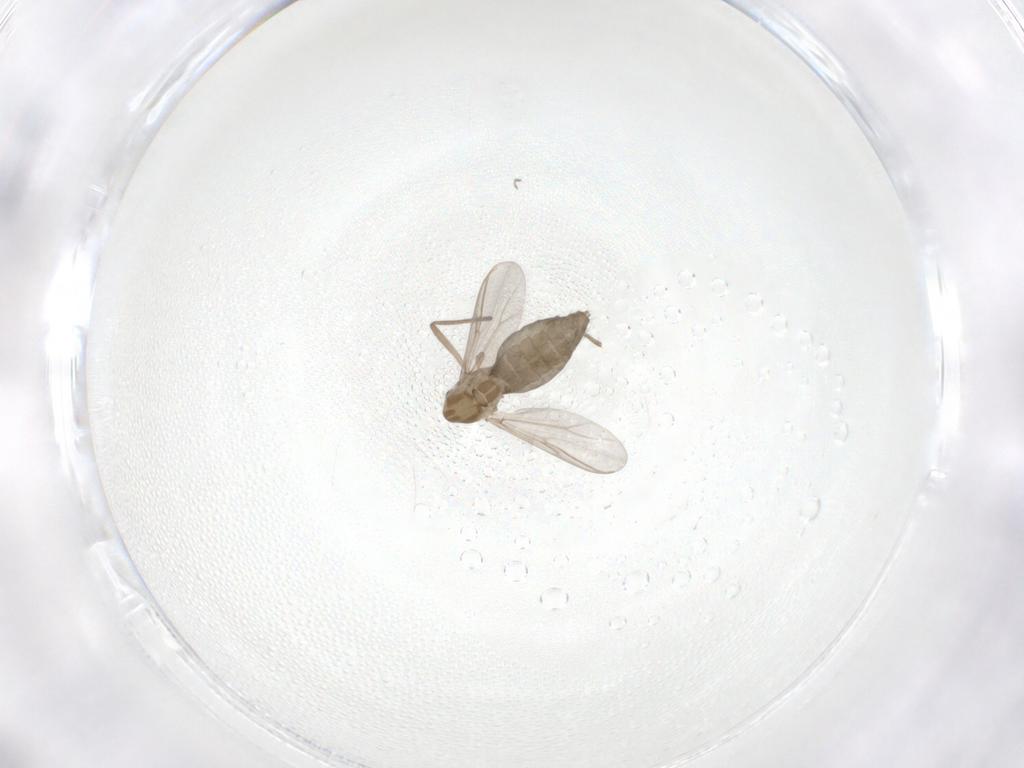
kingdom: Animalia
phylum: Arthropoda
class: Insecta
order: Diptera
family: Chironomidae
